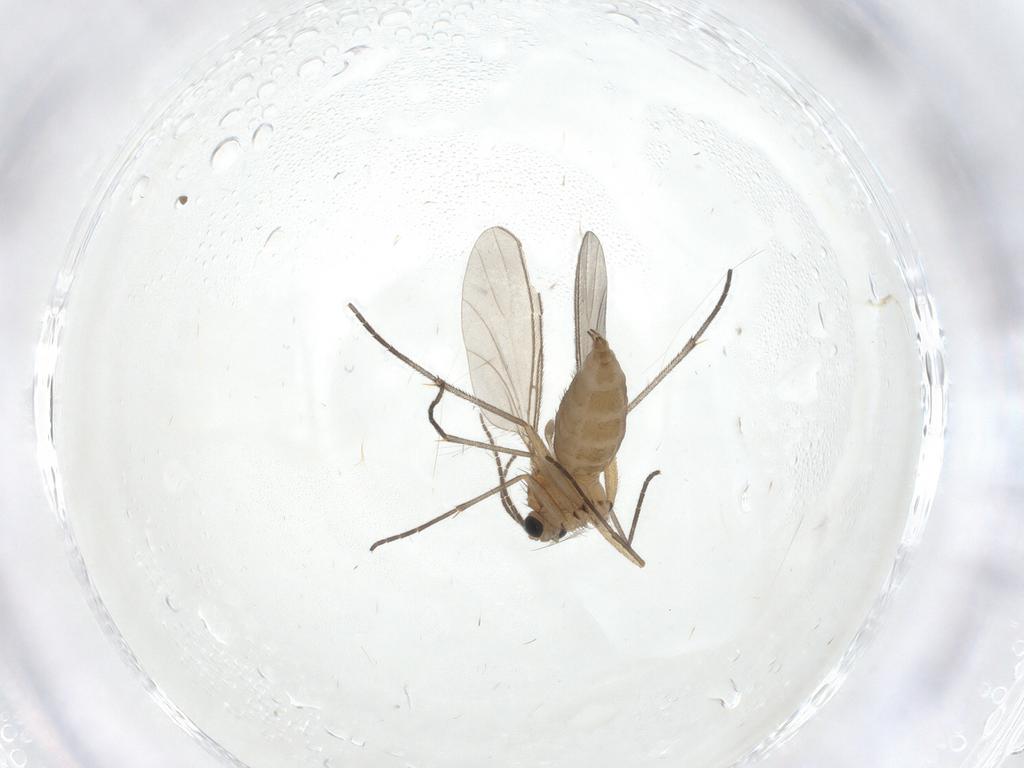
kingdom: Animalia
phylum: Arthropoda
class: Insecta
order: Diptera
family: Sciaridae
